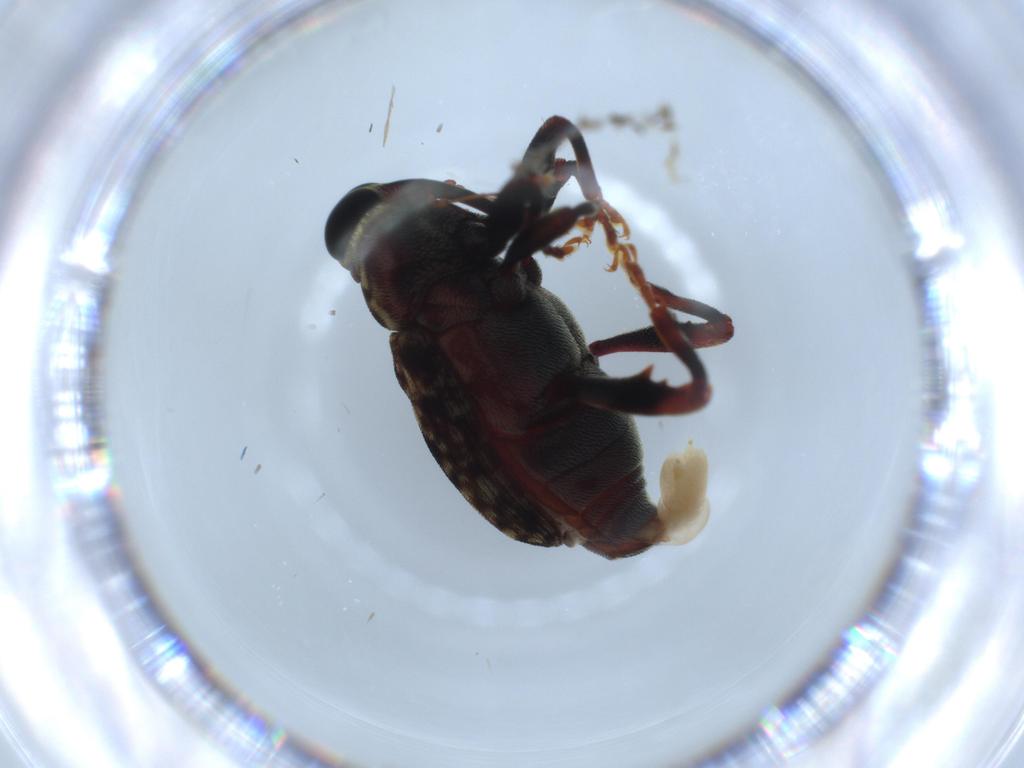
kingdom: Animalia
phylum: Arthropoda
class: Insecta
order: Coleoptera
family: Curculionidae
